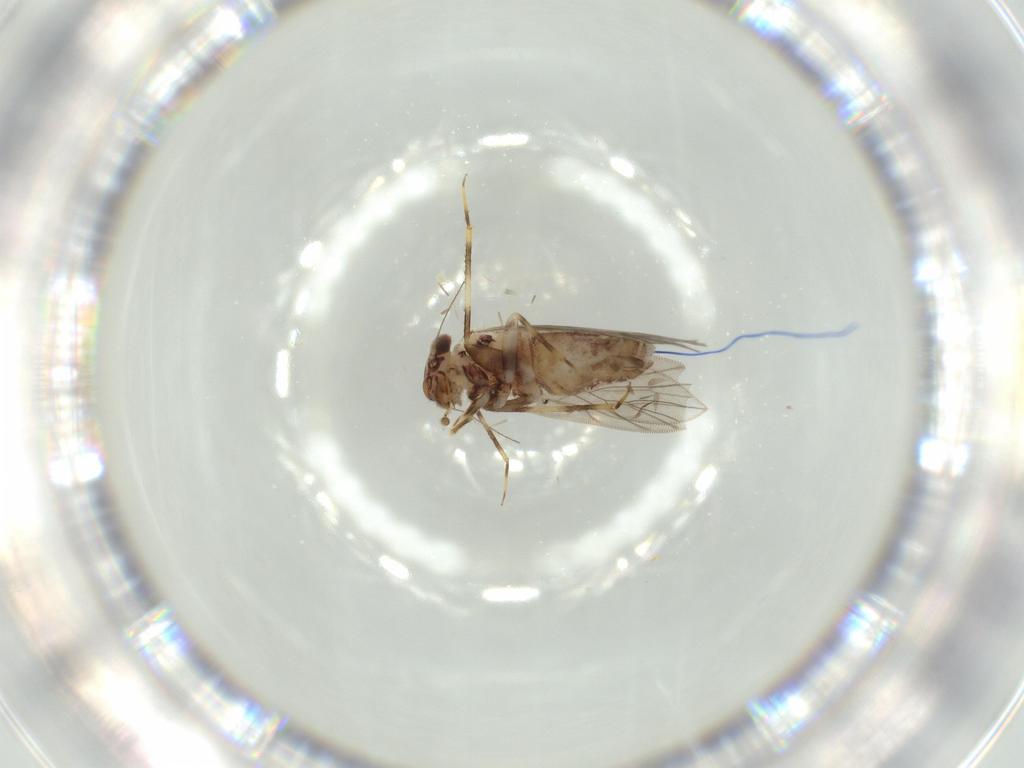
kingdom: Animalia
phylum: Arthropoda
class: Insecta
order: Psocodea
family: Lepidopsocidae
